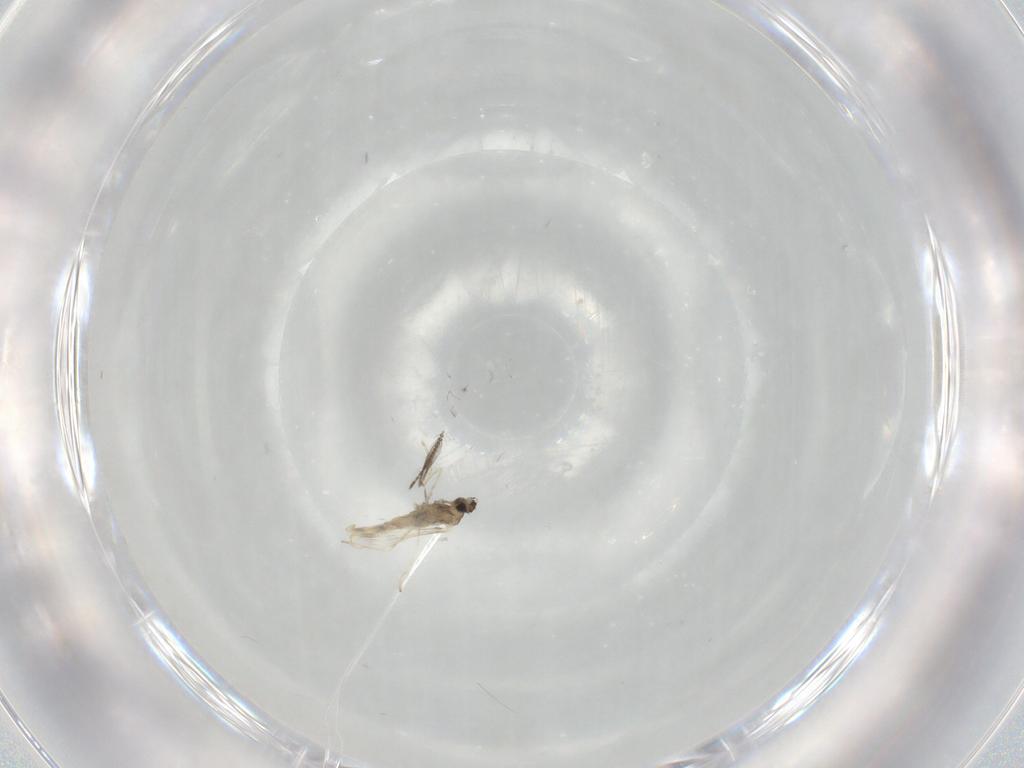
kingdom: Animalia
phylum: Arthropoda
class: Insecta
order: Diptera
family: Cecidomyiidae
